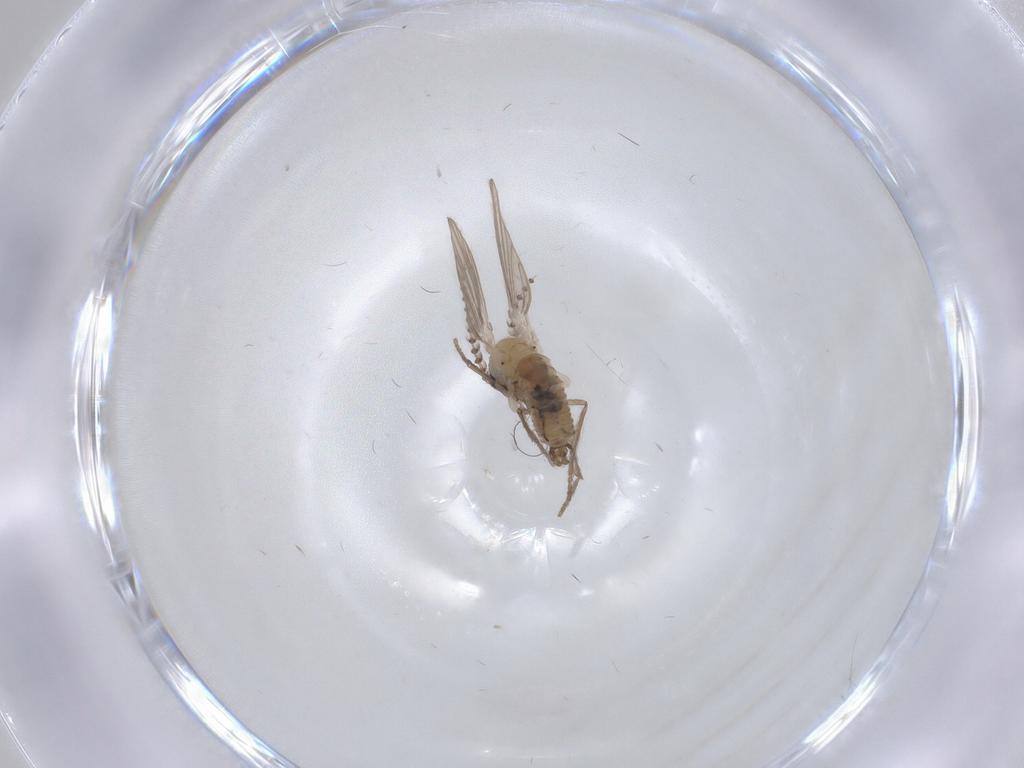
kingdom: Animalia
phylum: Arthropoda
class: Insecta
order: Diptera
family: Psychodidae
